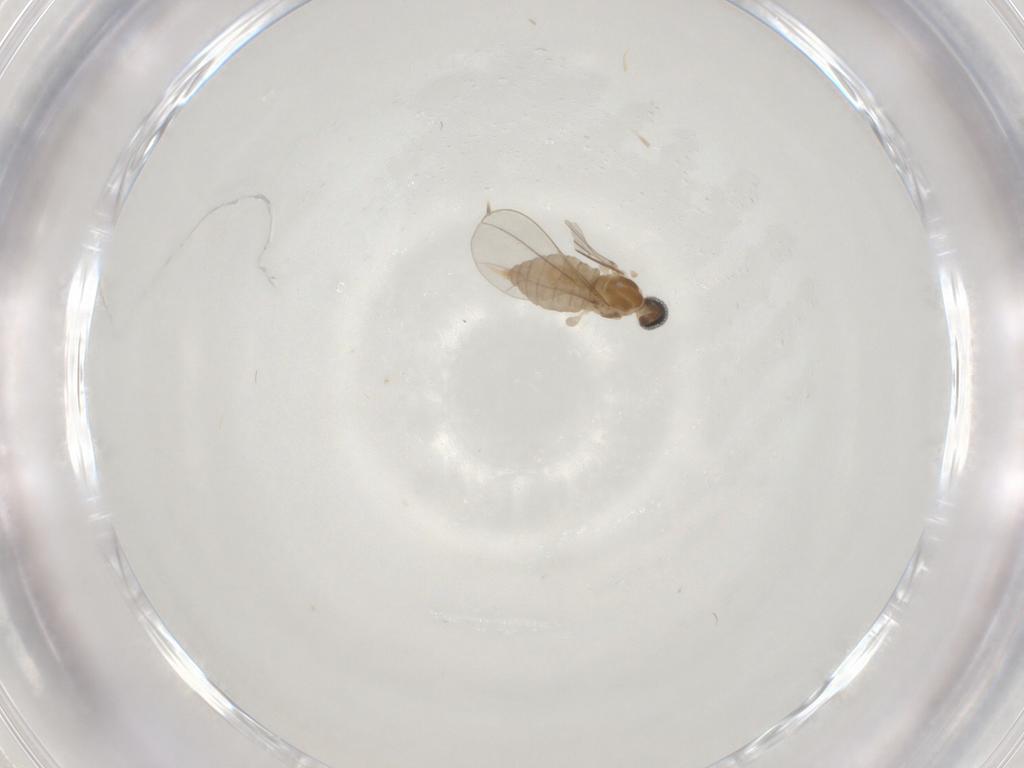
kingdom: Animalia
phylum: Arthropoda
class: Insecta
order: Diptera
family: Cecidomyiidae
